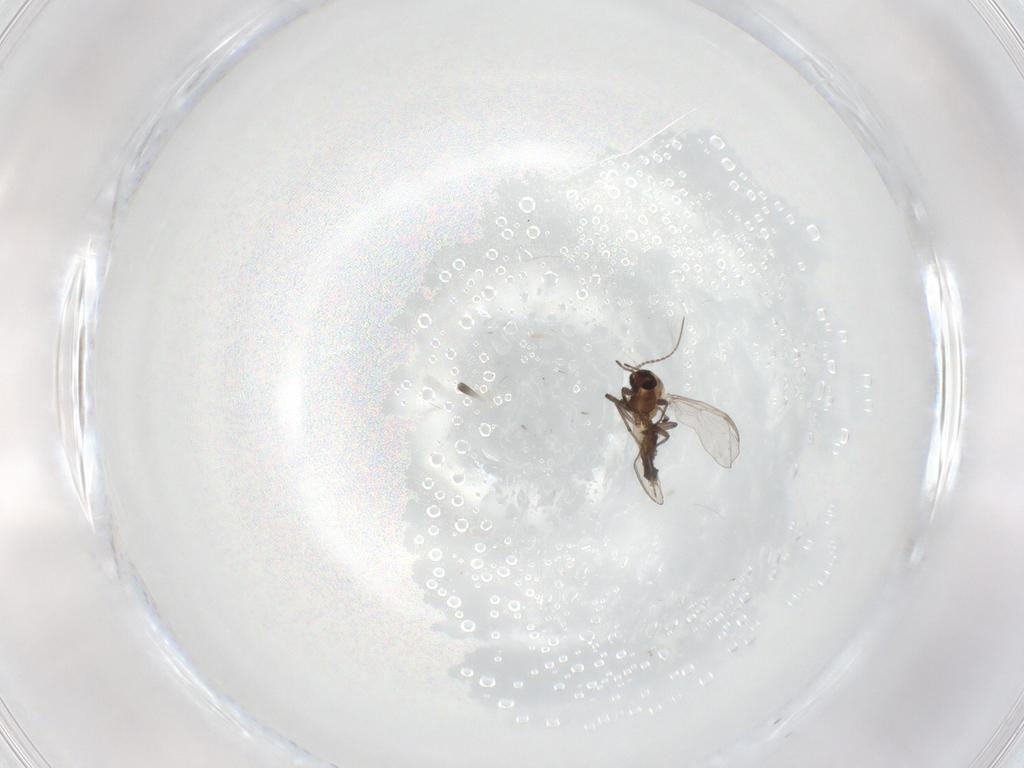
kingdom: Animalia
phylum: Arthropoda
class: Insecta
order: Diptera
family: Chironomidae
